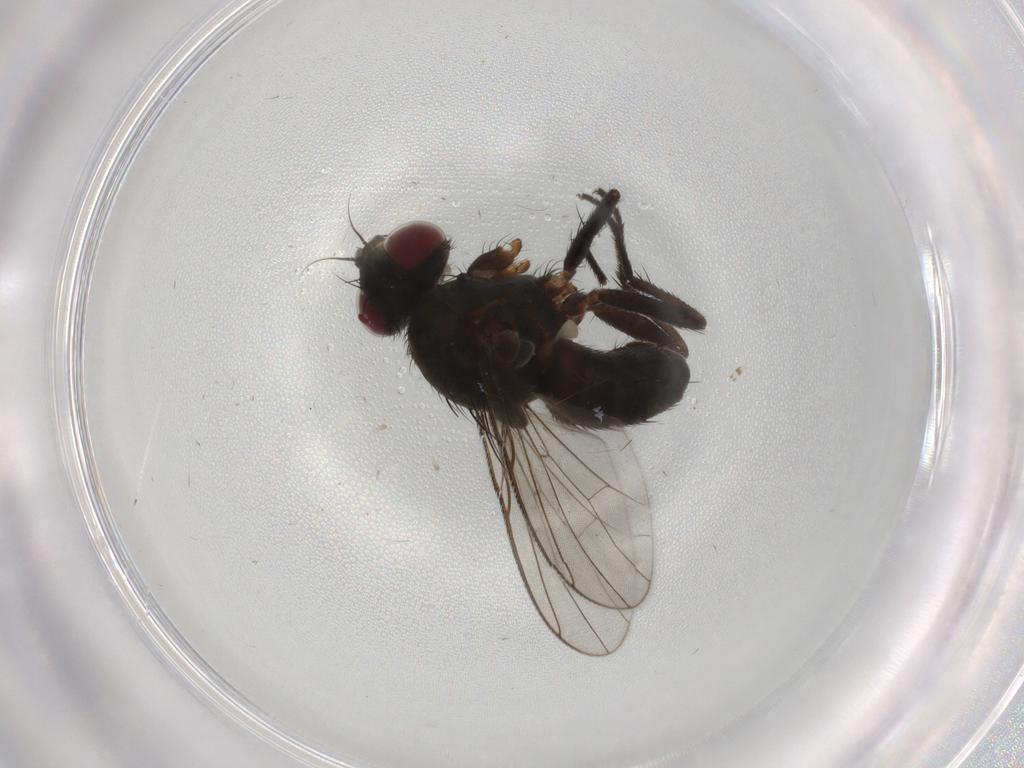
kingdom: Animalia
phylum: Arthropoda
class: Insecta
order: Diptera
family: Muscidae
